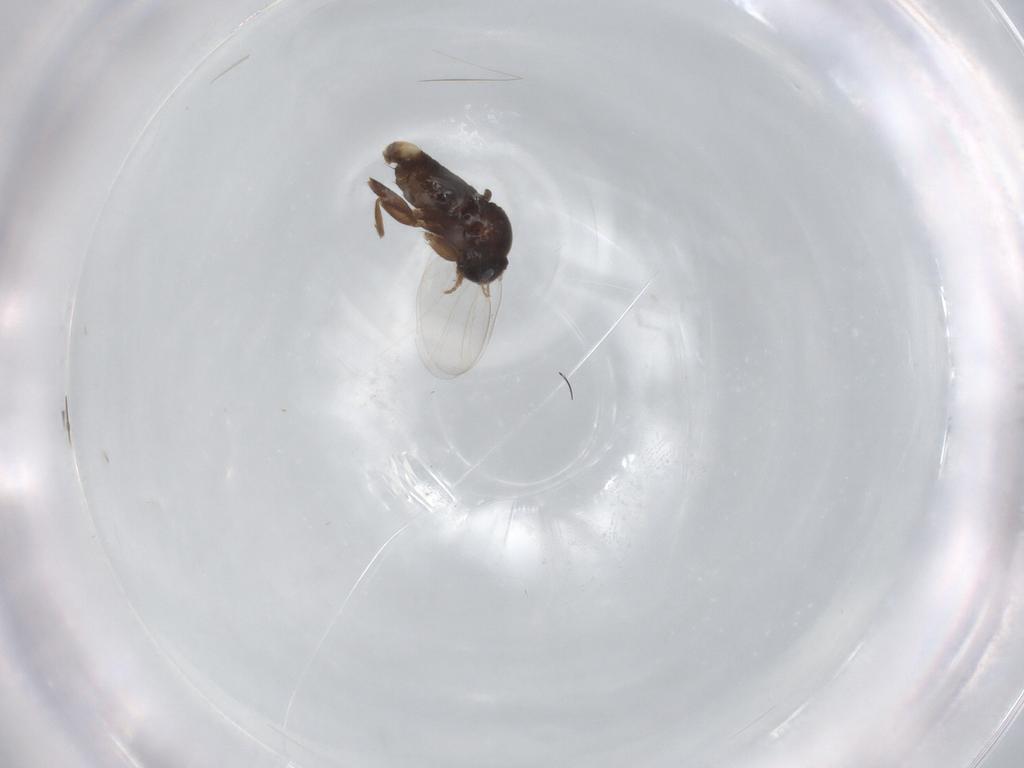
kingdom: Animalia
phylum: Arthropoda
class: Insecta
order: Diptera
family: Phoridae
